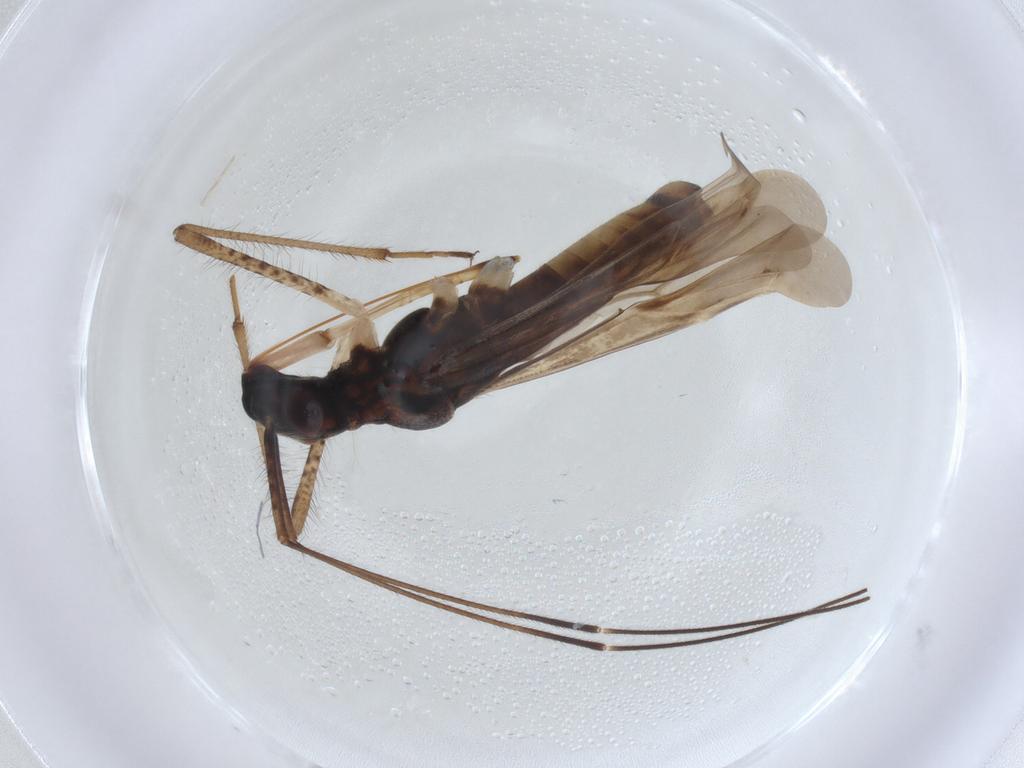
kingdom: Animalia
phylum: Arthropoda
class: Insecta
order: Hemiptera
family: Miridae
